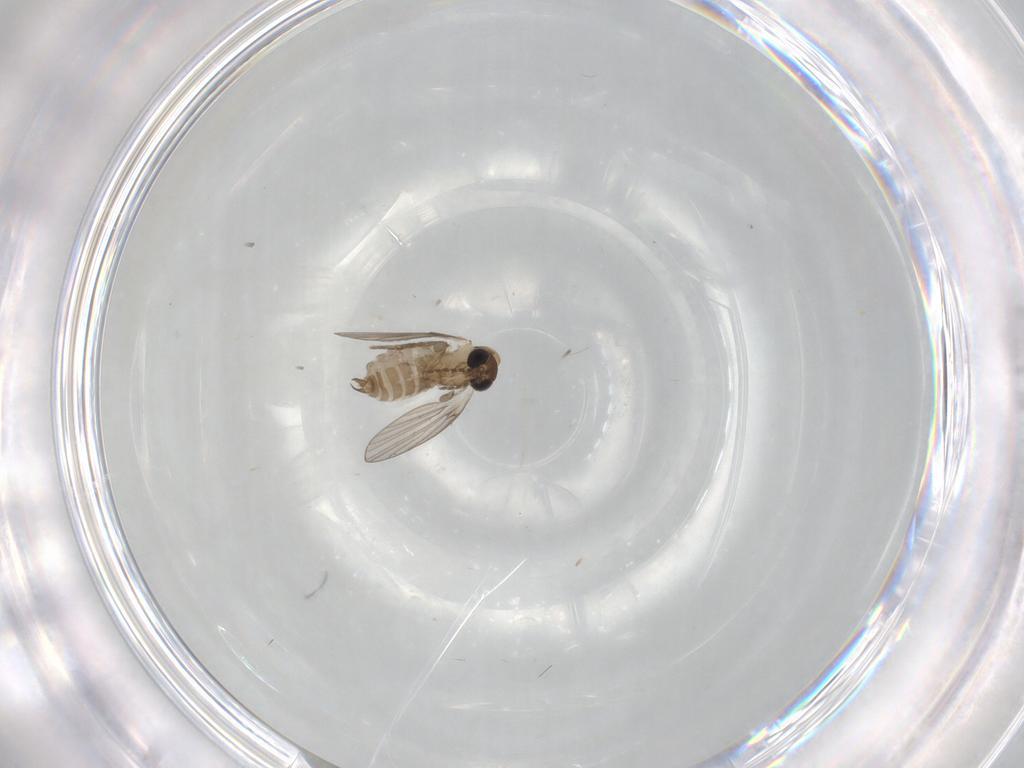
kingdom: Animalia
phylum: Arthropoda
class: Insecta
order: Diptera
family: Psychodidae
